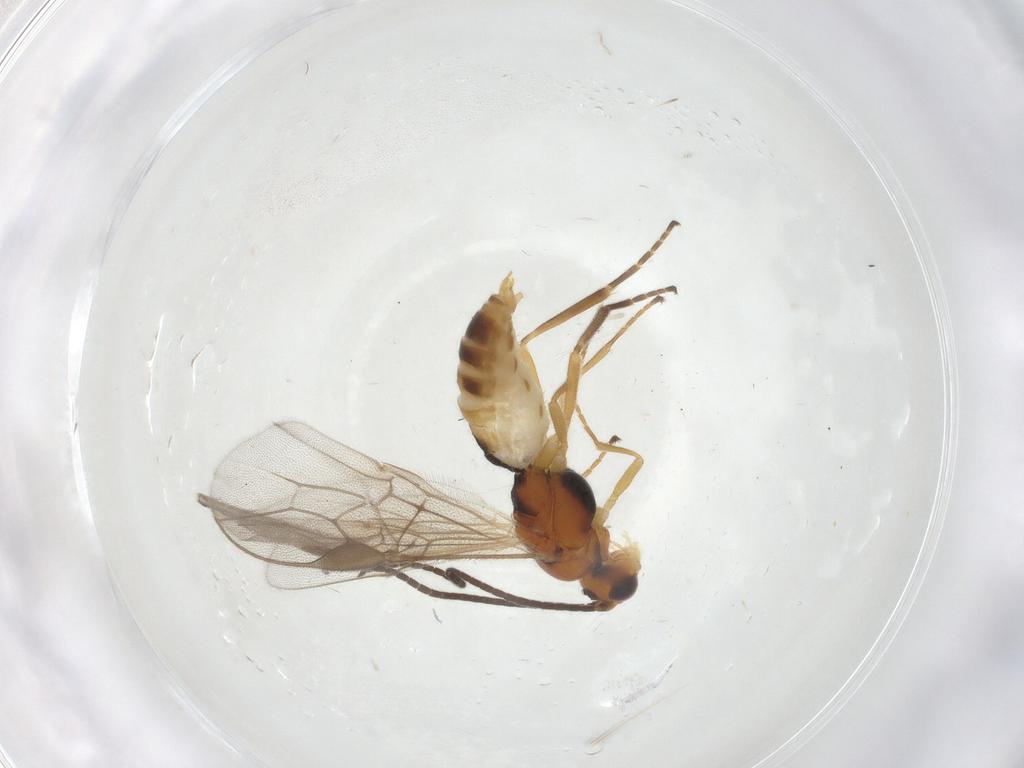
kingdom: Animalia
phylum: Arthropoda
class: Insecta
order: Hymenoptera
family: Braconidae
